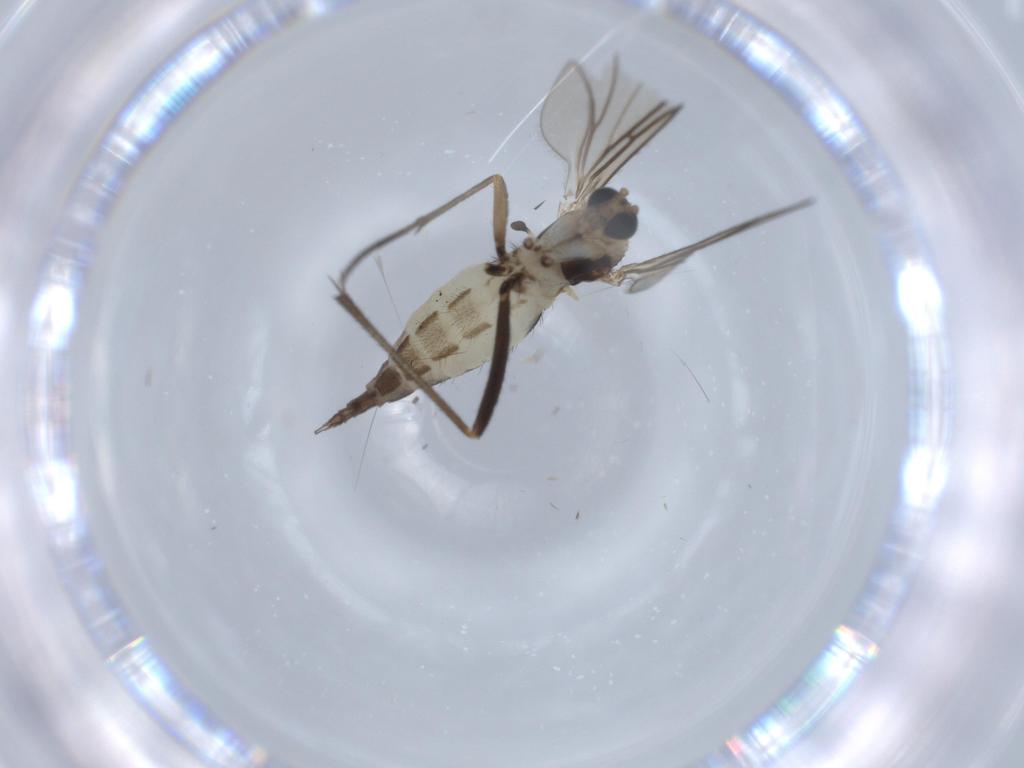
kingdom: Animalia
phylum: Arthropoda
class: Insecta
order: Diptera
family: Sciaridae
